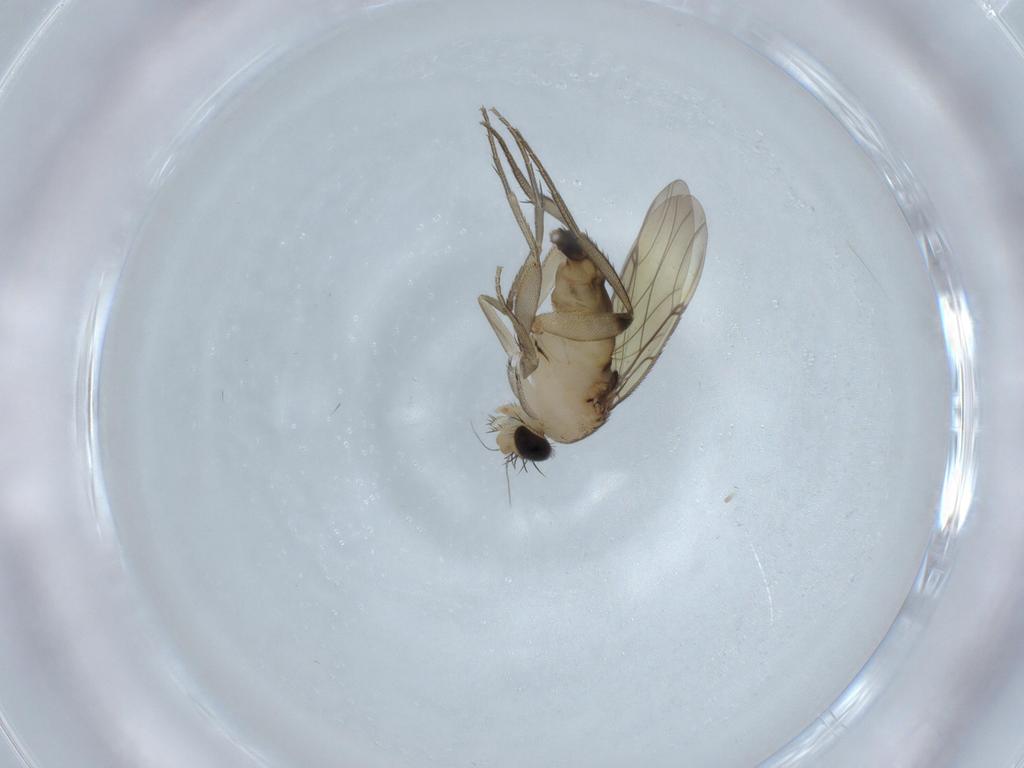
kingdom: Animalia
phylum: Arthropoda
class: Insecta
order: Diptera
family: Phoridae
